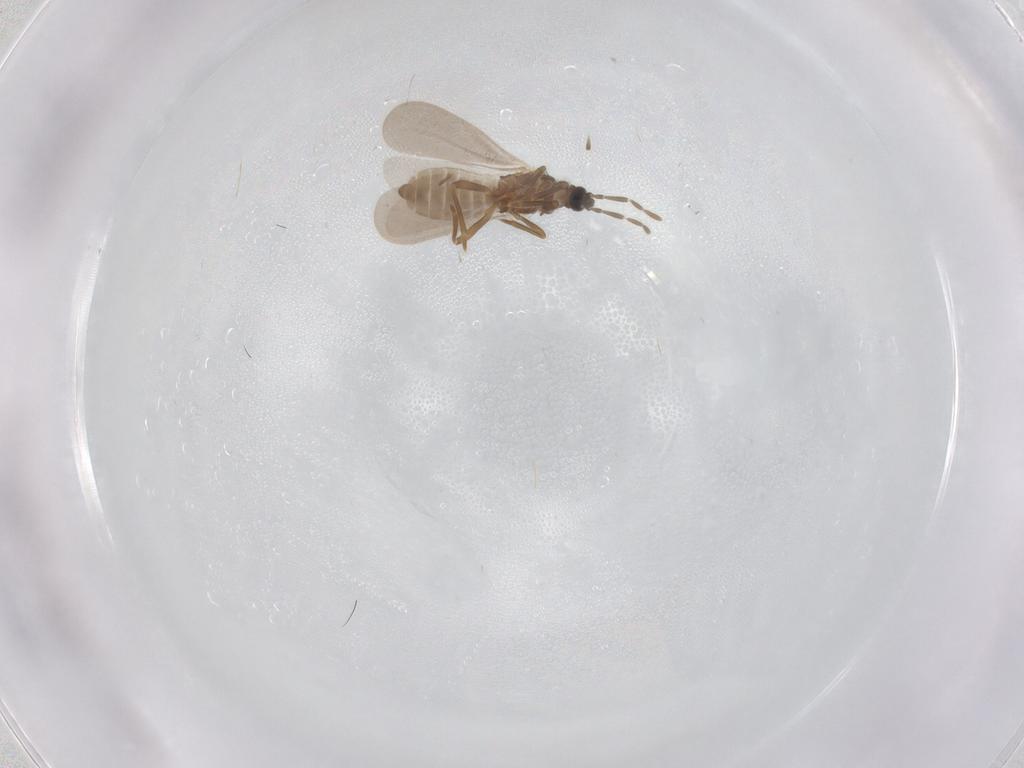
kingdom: Animalia
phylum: Arthropoda
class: Insecta
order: Hemiptera
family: Enicocephalidae
